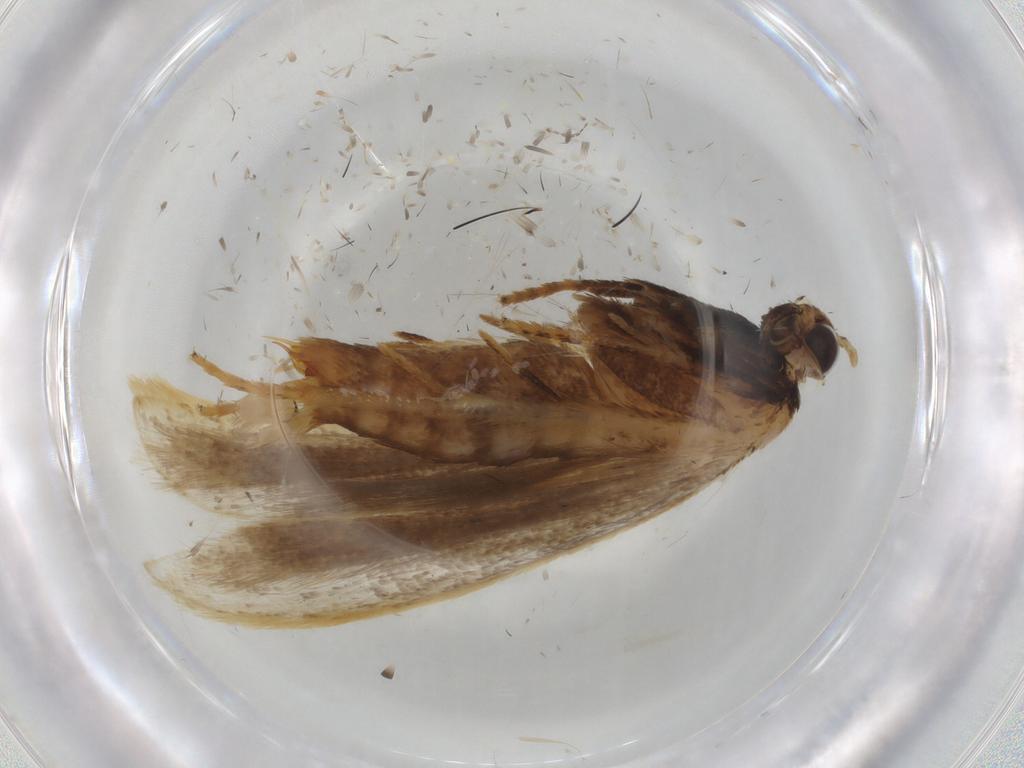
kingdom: Animalia
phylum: Arthropoda
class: Insecta
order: Lepidoptera
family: Gelechiidae
